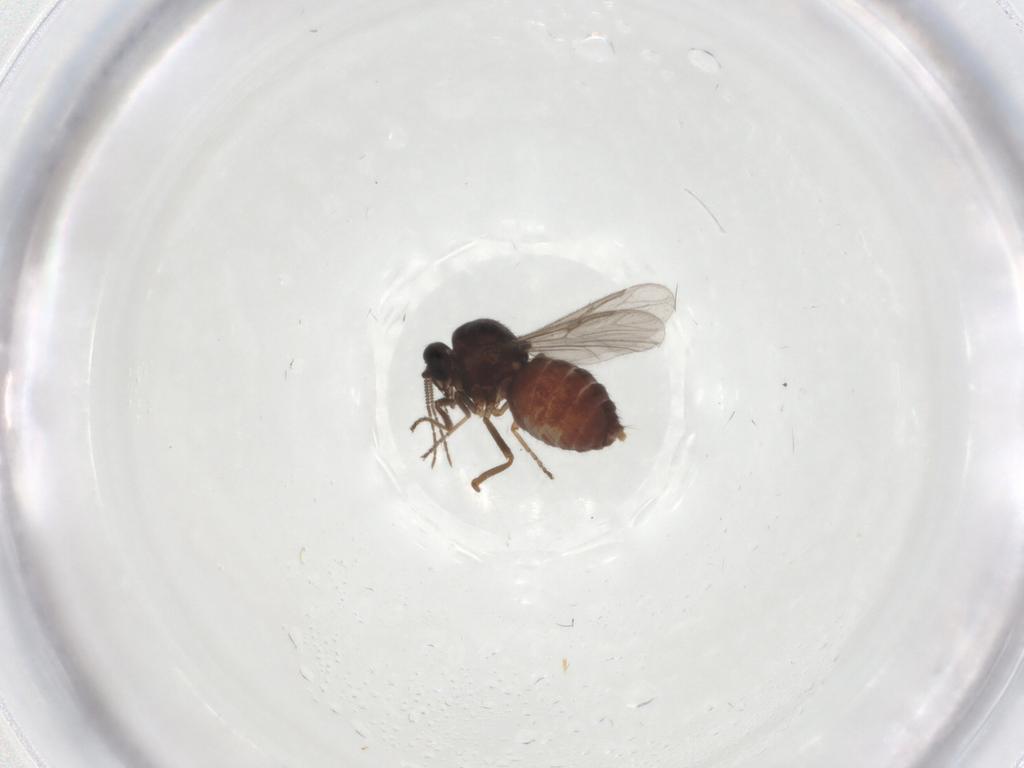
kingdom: Animalia
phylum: Arthropoda
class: Insecta
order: Diptera
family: Ceratopogonidae
